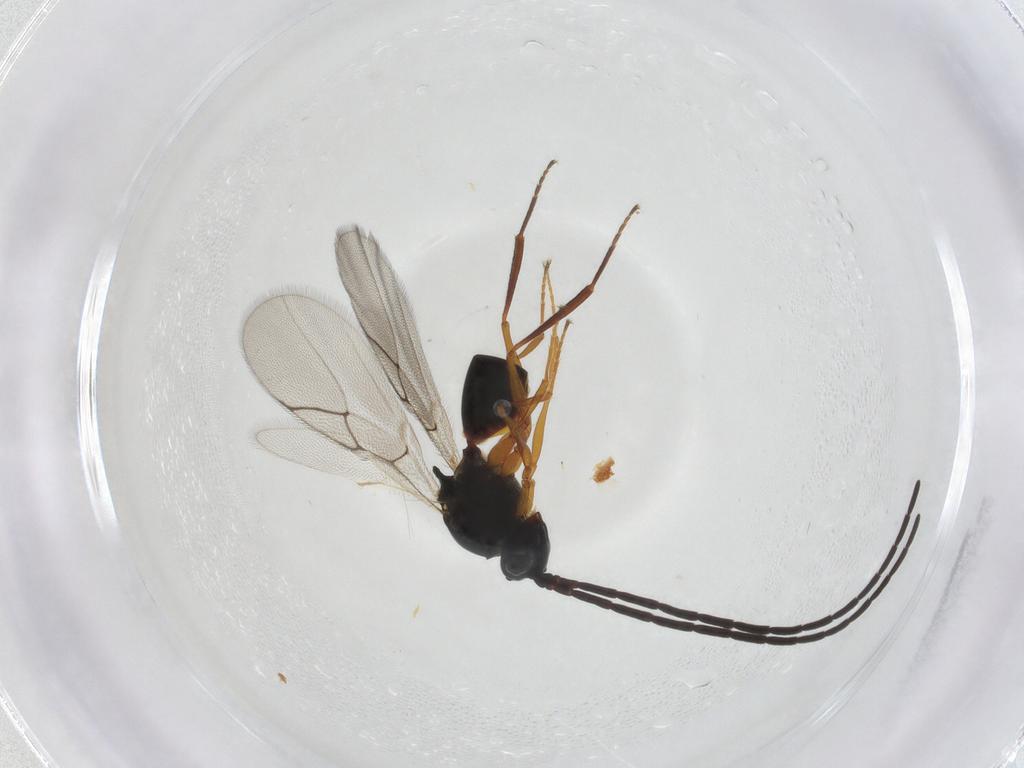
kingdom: Animalia
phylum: Arthropoda
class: Insecta
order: Hymenoptera
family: Figitidae
